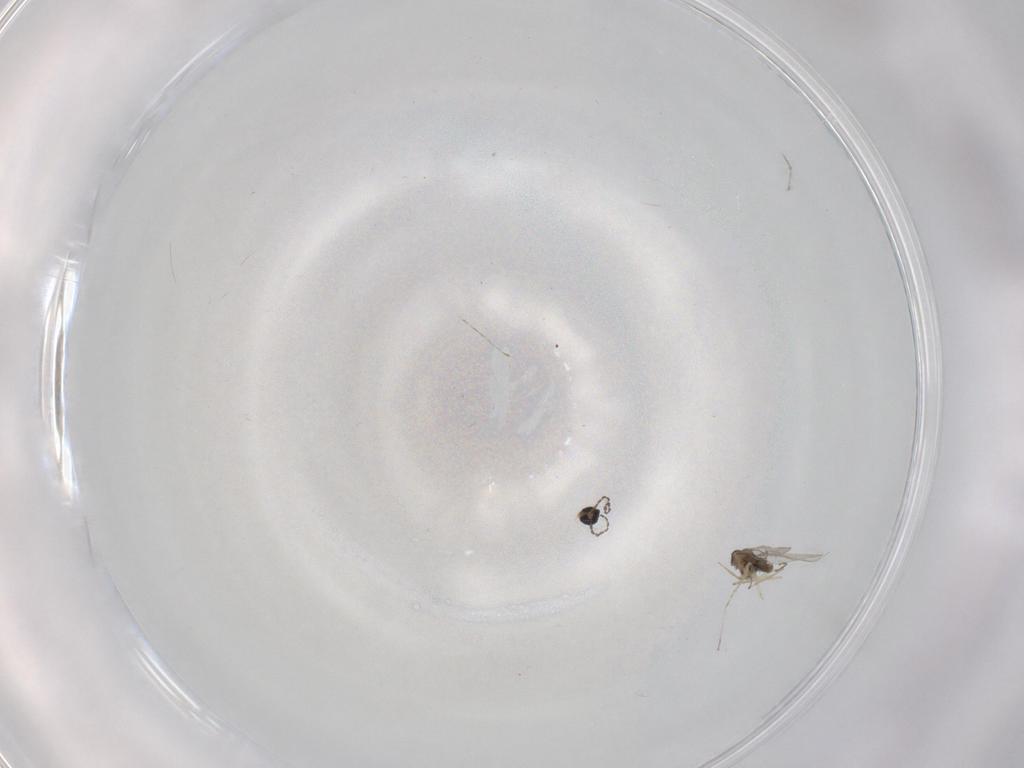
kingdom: Animalia
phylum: Arthropoda
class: Insecta
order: Diptera
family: Cecidomyiidae
